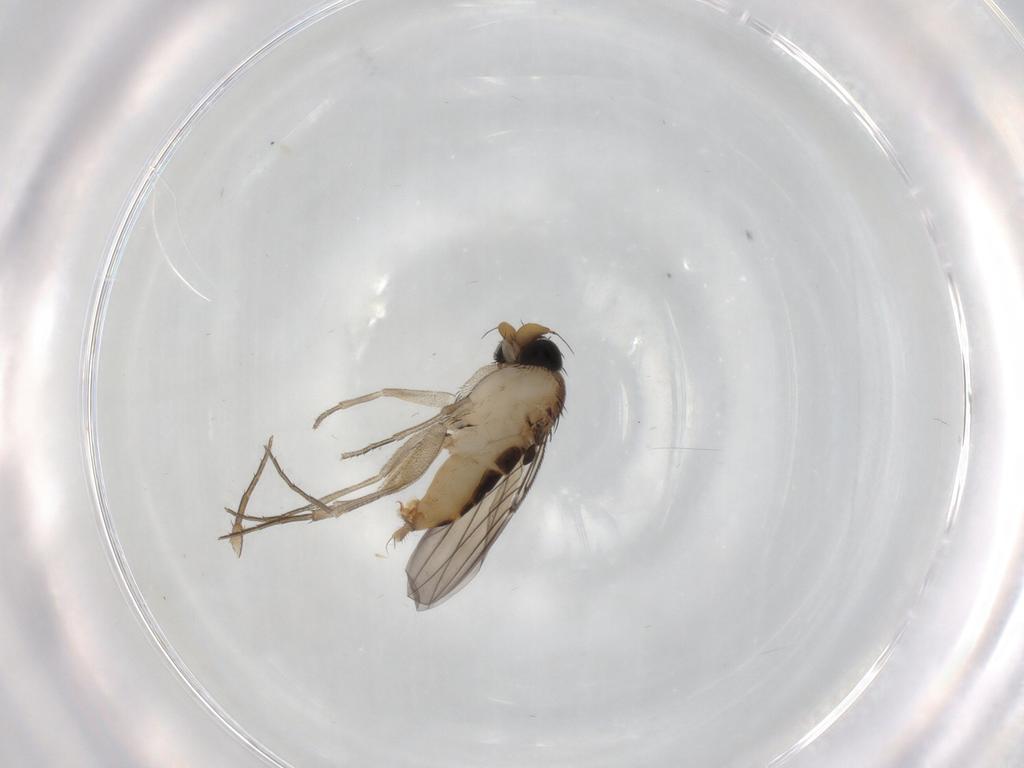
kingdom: Animalia
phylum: Arthropoda
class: Insecta
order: Diptera
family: Phoridae
